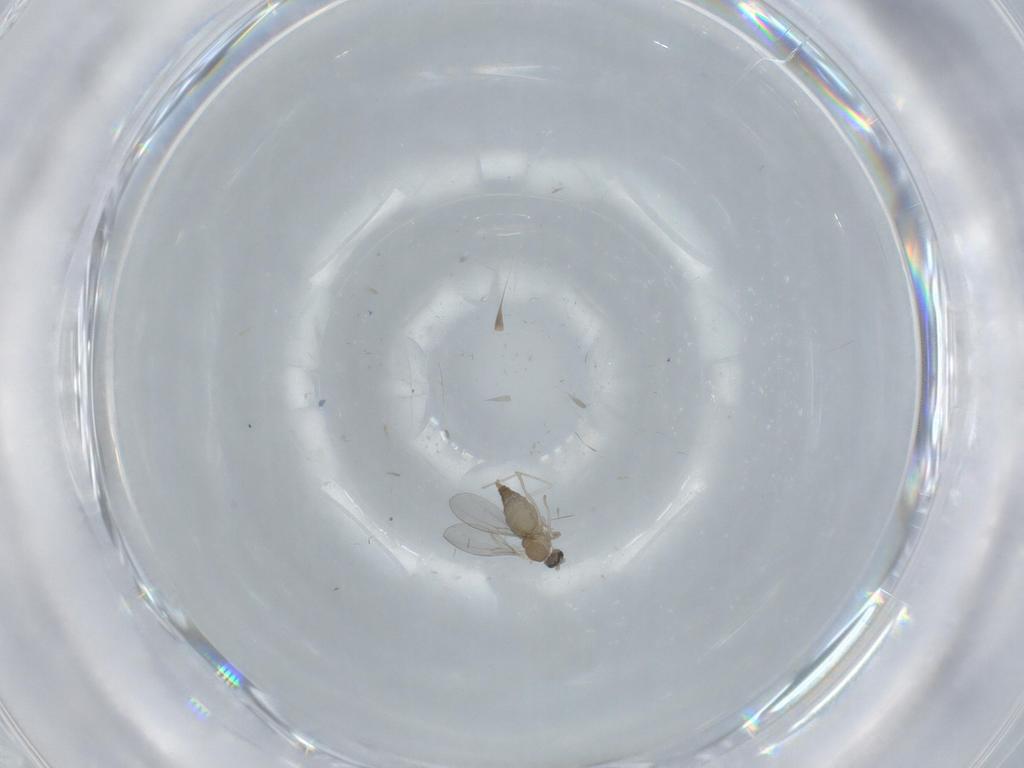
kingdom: Animalia
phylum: Arthropoda
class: Insecta
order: Diptera
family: Cecidomyiidae
